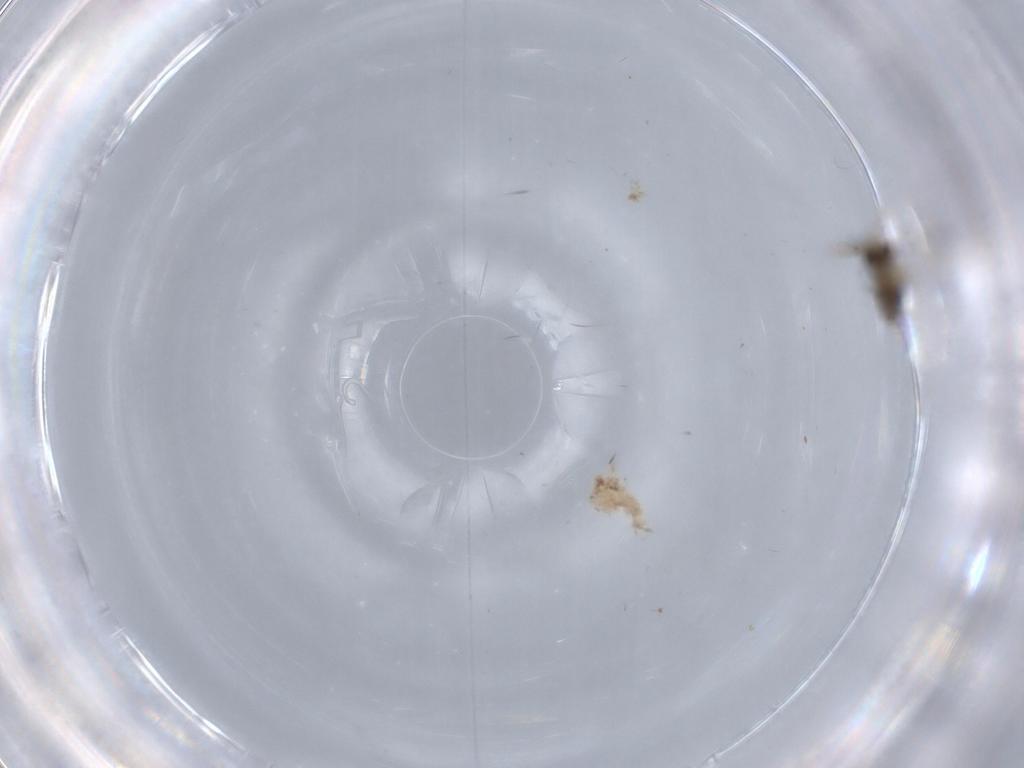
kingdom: Animalia
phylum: Arthropoda
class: Insecta
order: Diptera
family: Chironomidae
